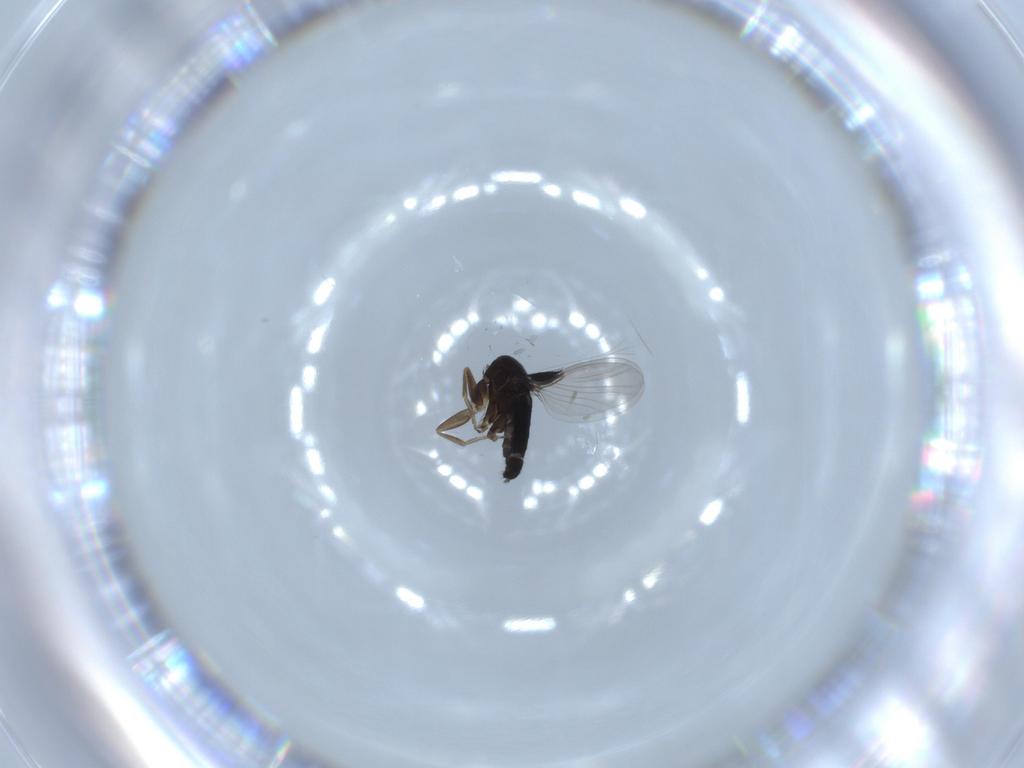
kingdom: Animalia
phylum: Arthropoda
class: Insecta
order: Diptera
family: Phoridae
